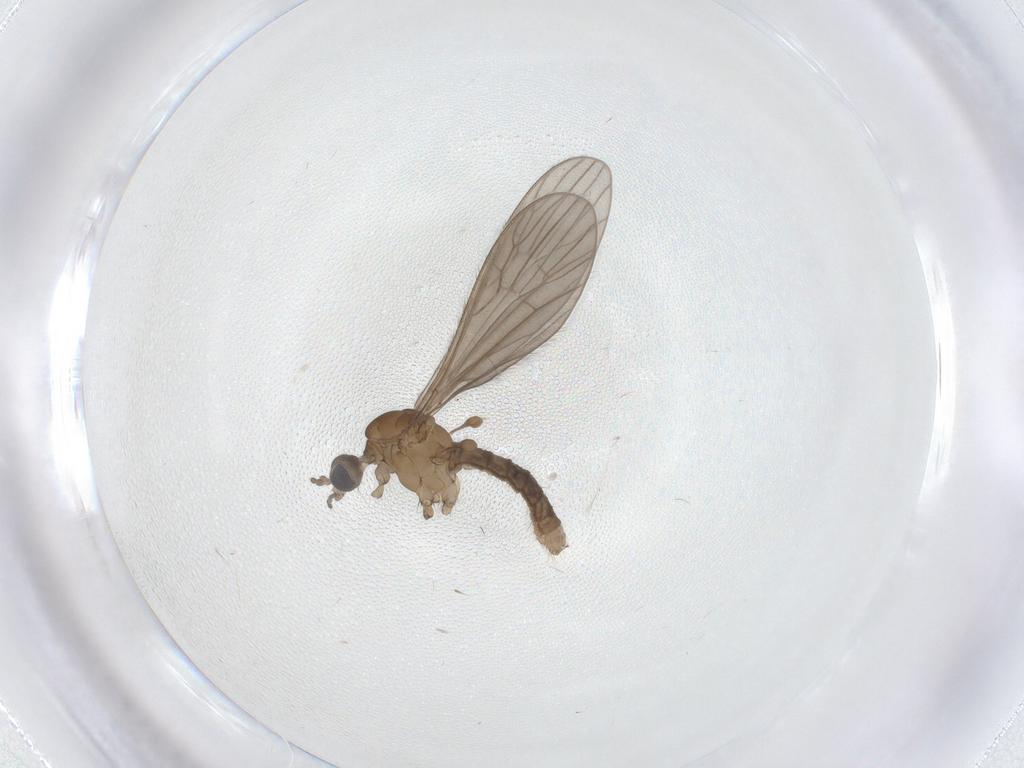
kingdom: Animalia
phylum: Arthropoda
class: Insecta
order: Diptera
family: Limoniidae
